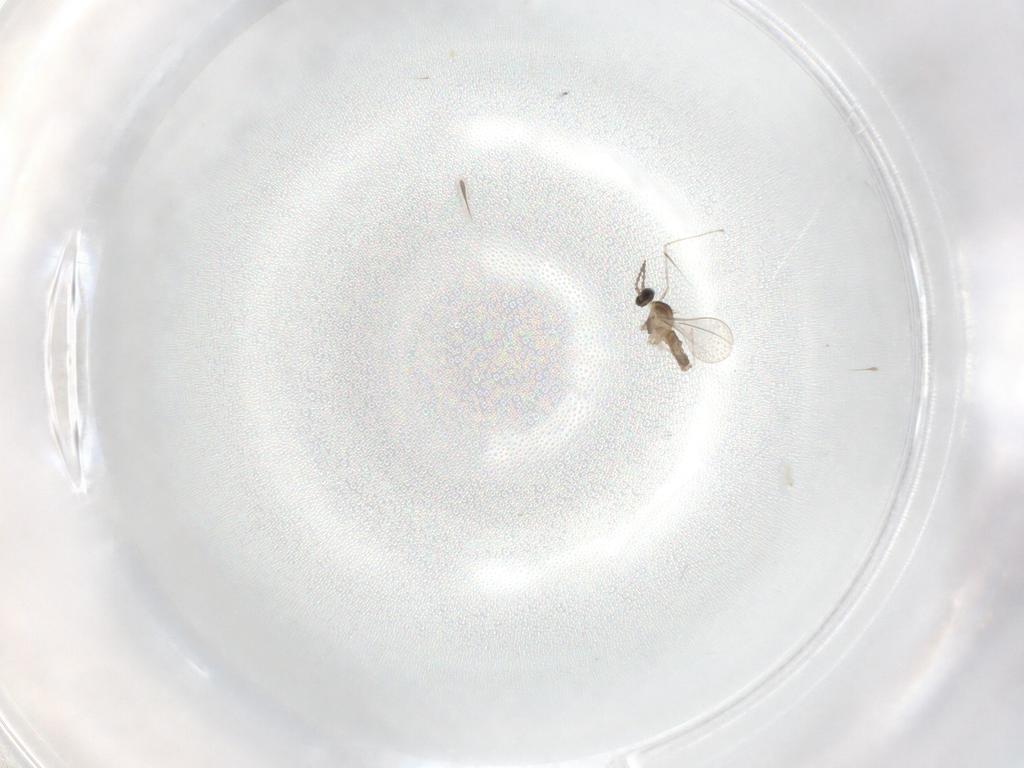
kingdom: Animalia
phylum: Arthropoda
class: Insecta
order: Diptera
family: Cecidomyiidae
